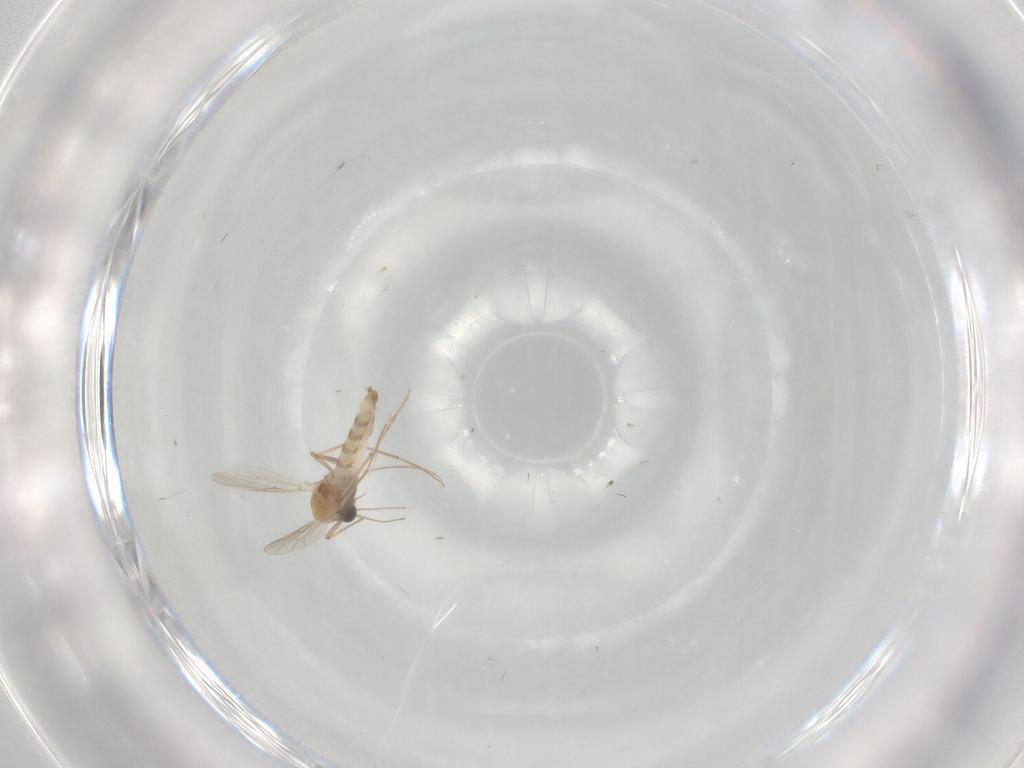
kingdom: Animalia
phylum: Arthropoda
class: Insecta
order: Diptera
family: Chironomidae
